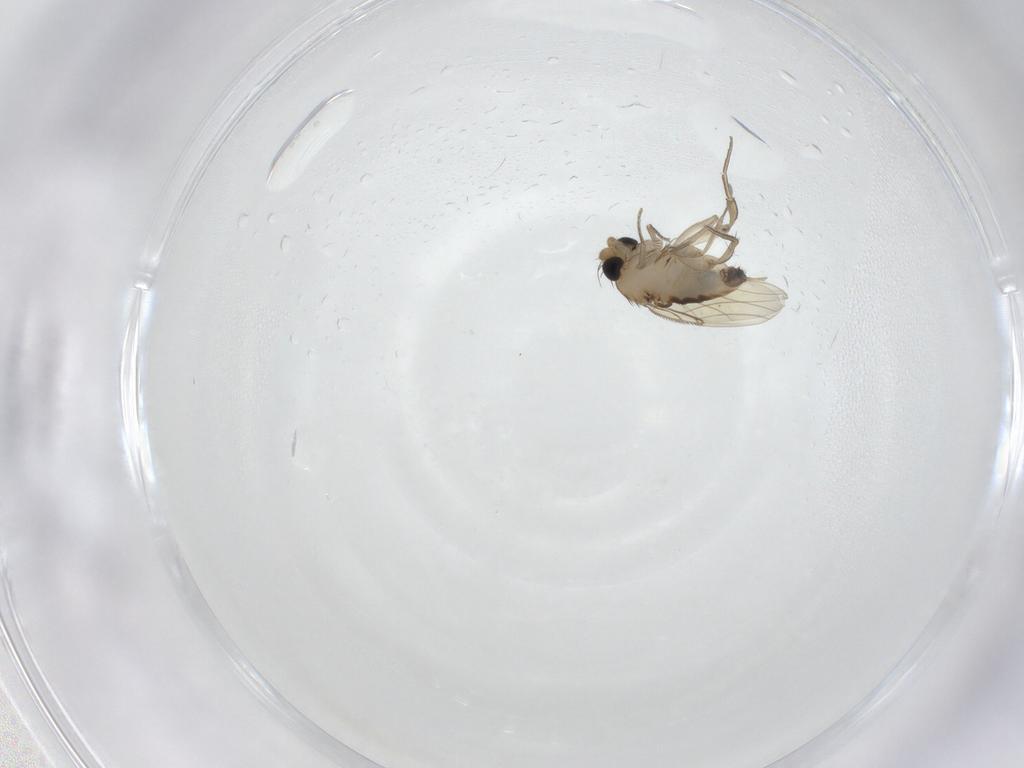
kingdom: Animalia
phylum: Arthropoda
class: Insecta
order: Diptera
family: Phoridae
